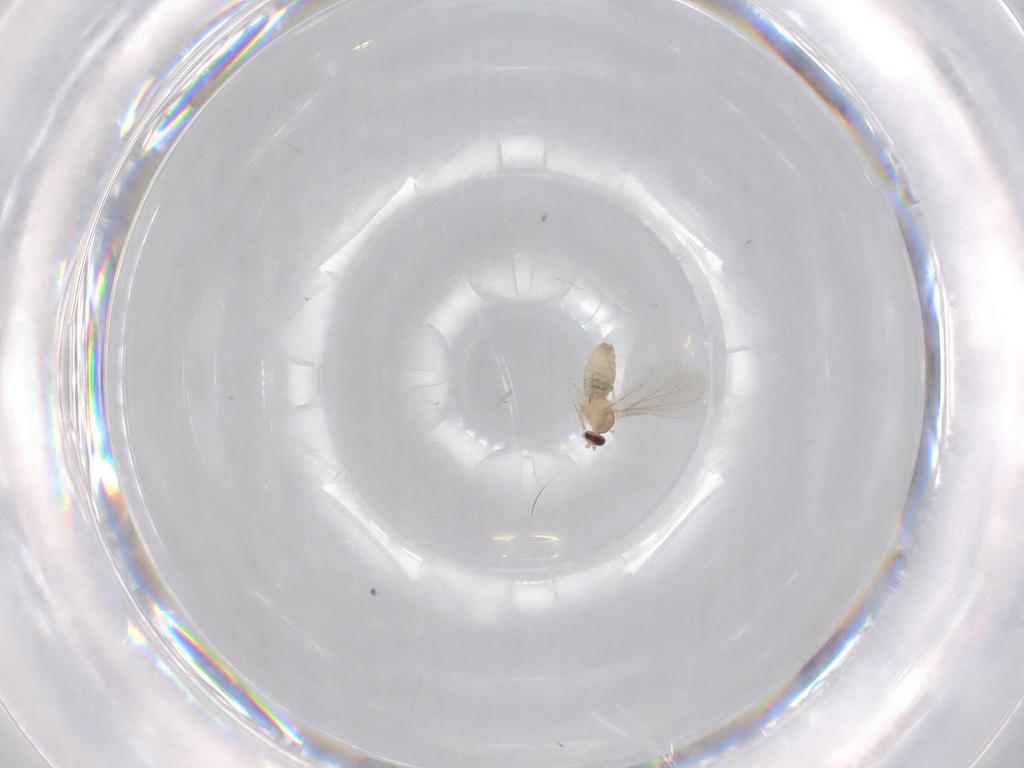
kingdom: Animalia
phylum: Arthropoda
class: Insecta
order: Diptera
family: Cecidomyiidae
